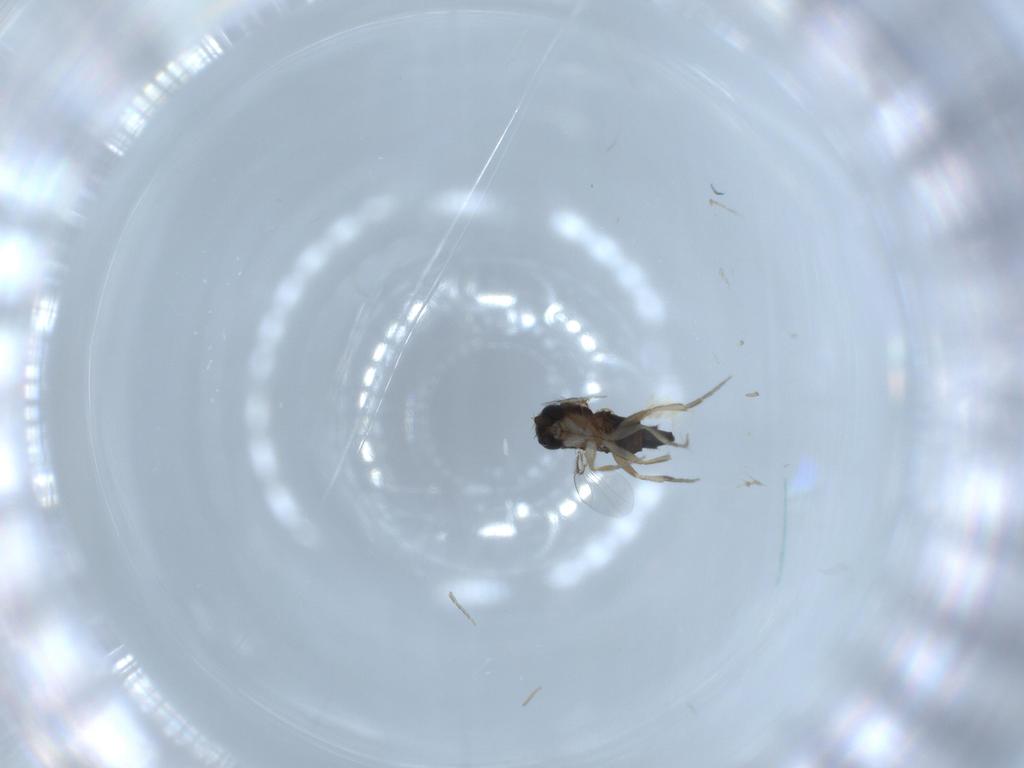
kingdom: Animalia
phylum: Arthropoda
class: Insecta
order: Diptera
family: Phoridae
